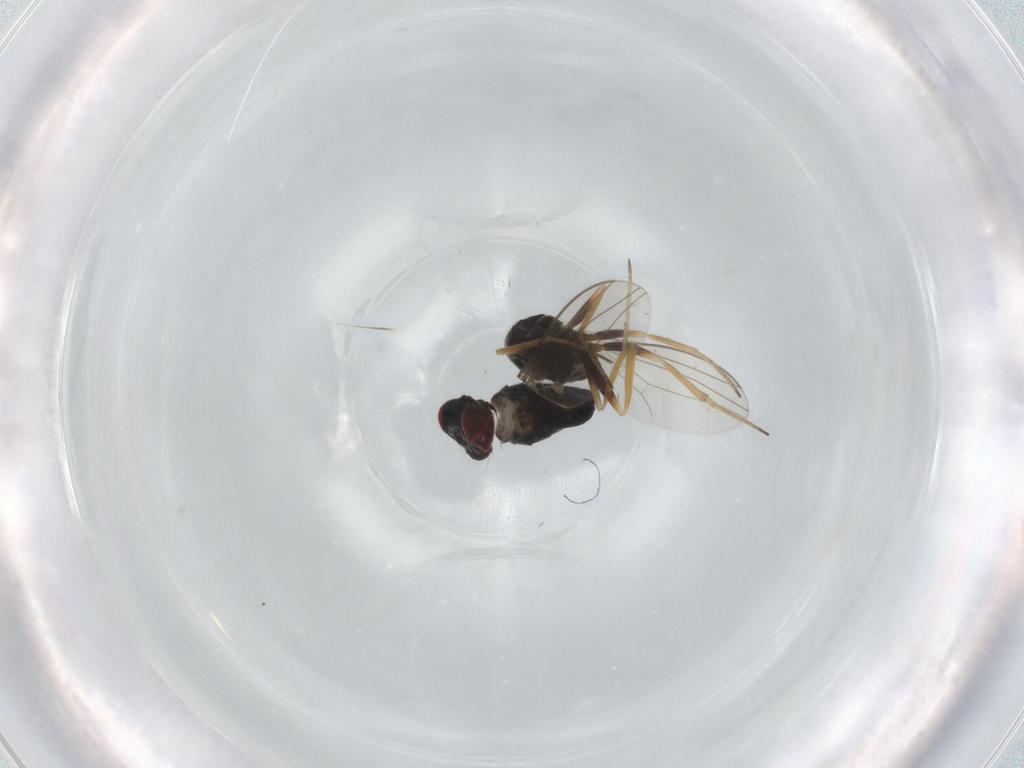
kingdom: Animalia
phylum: Arthropoda
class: Insecta
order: Diptera
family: Dolichopodidae
